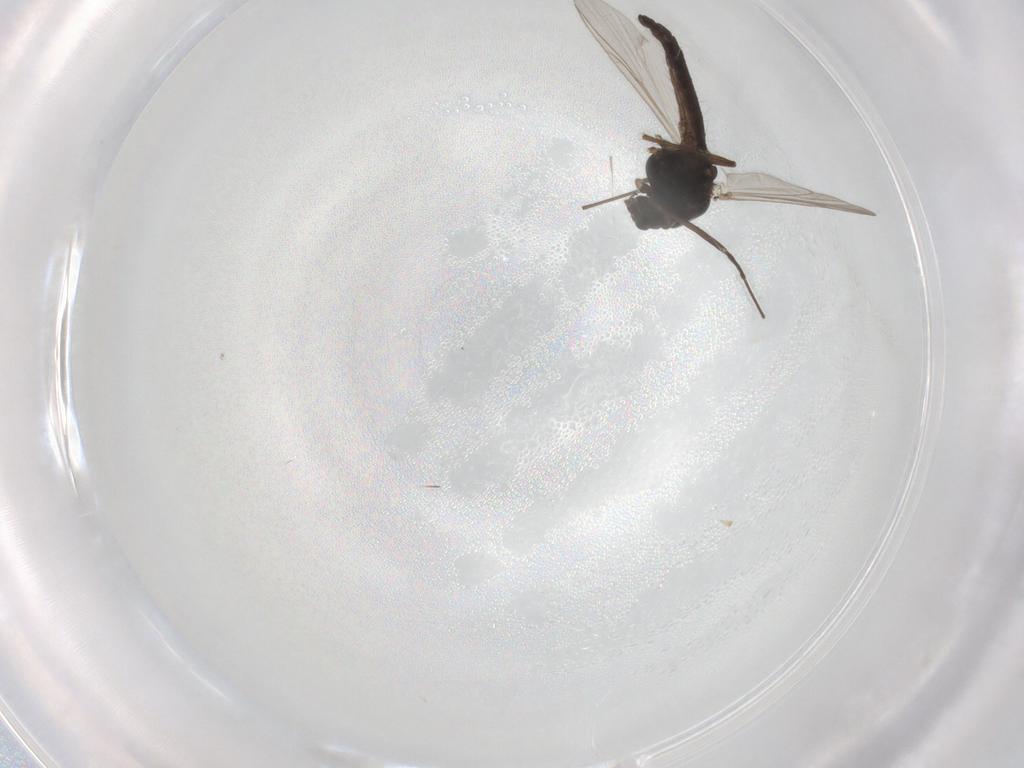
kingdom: Animalia
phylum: Arthropoda
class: Insecta
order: Diptera
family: Chironomidae
